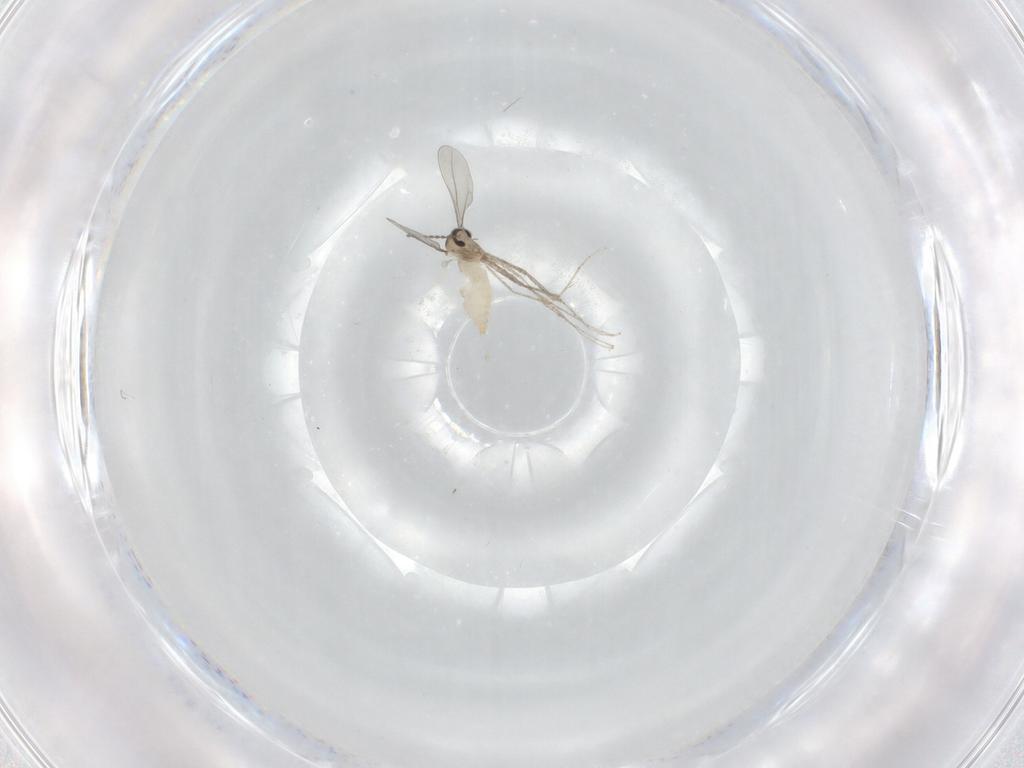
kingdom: Animalia
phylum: Arthropoda
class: Insecta
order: Diptera
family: Cecidomyiidae
